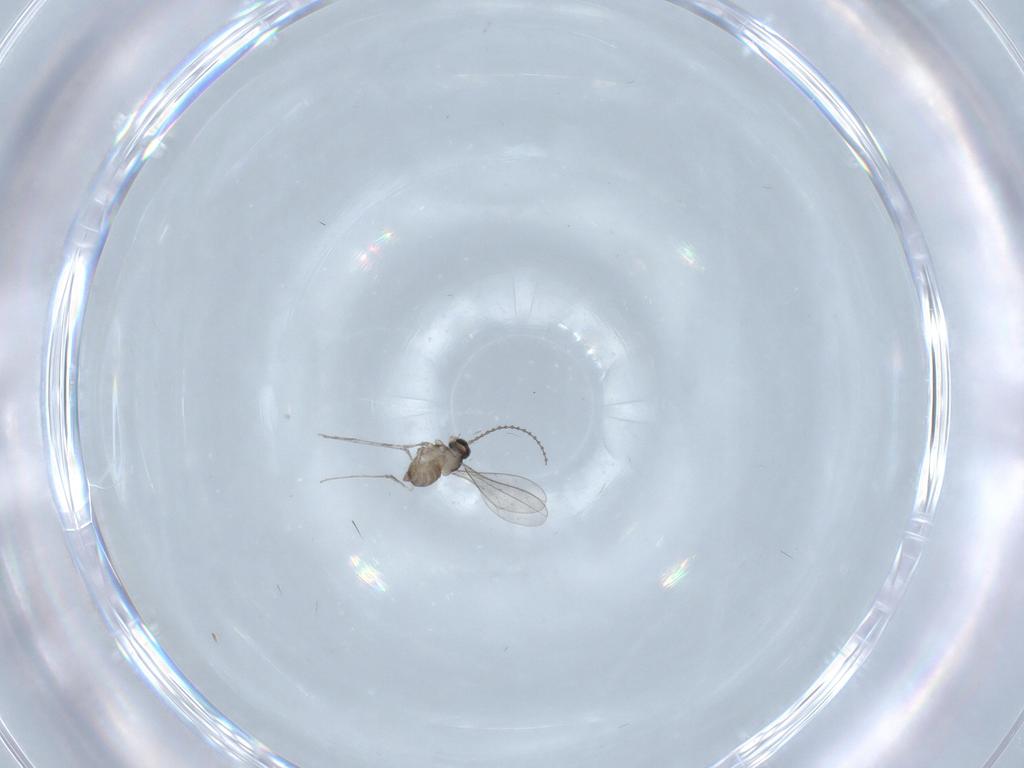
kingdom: Animalia
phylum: Arthropoda
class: Insecta
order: Diptera
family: Cecidomyiidae
